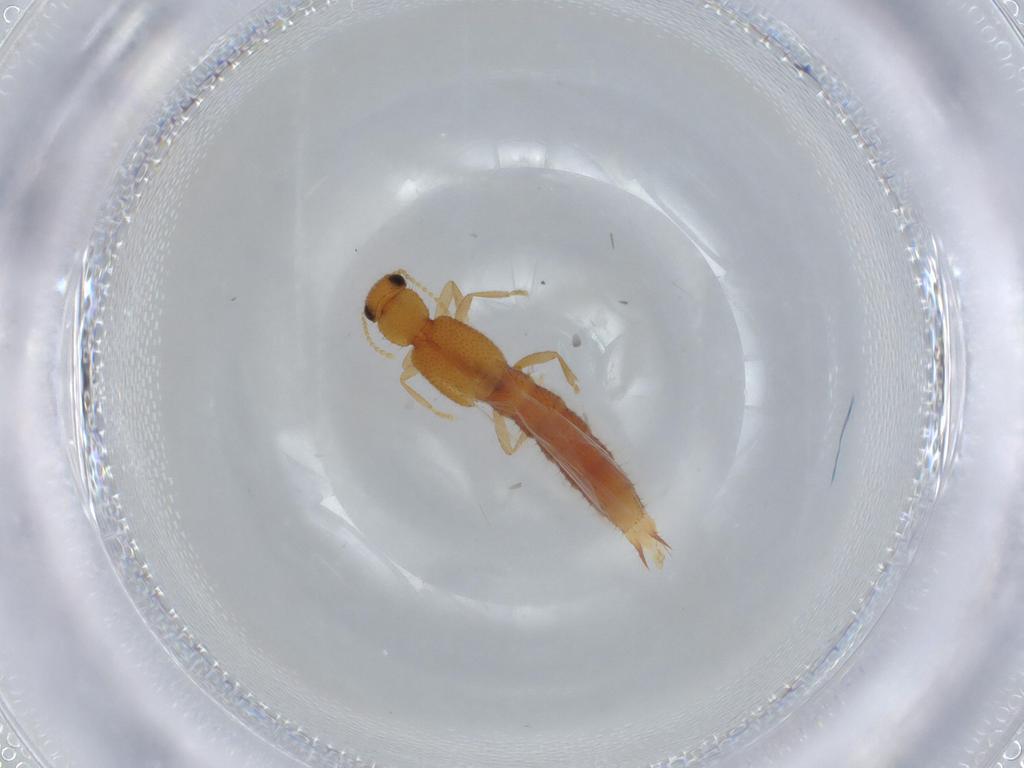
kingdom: Animalia
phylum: Arthropoda
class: Insecta
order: Coleoptera
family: Staphylinidae
